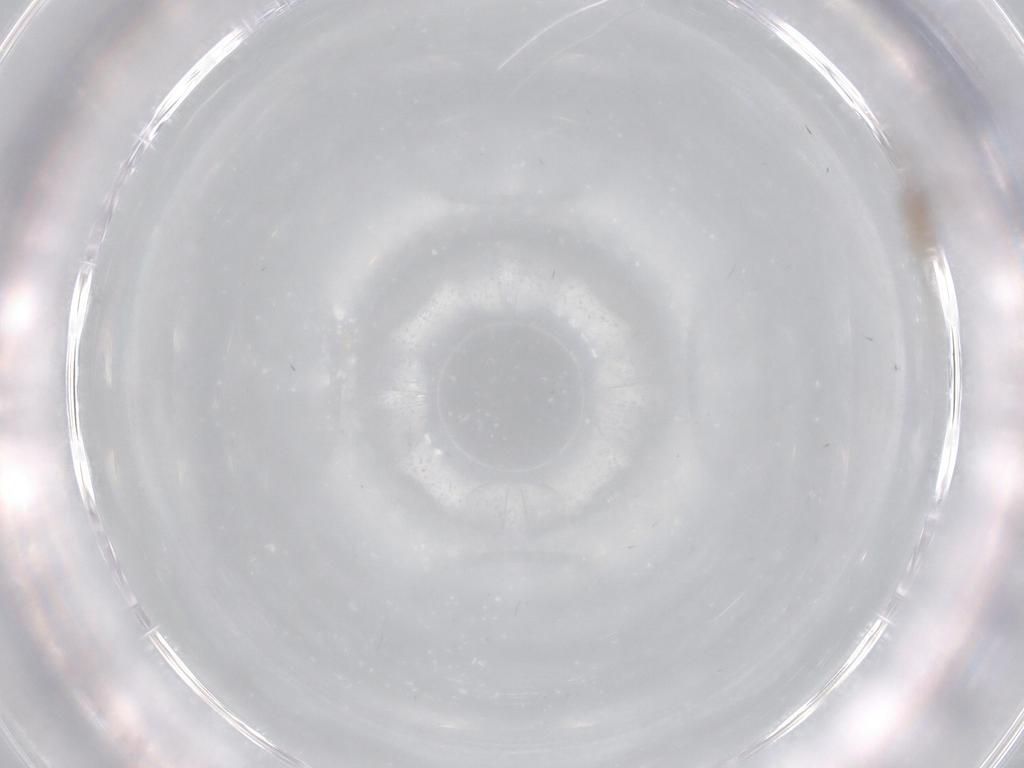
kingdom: Animalia
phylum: Arthropoda
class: Insecta
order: Diptera
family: Cecidomyiidae
